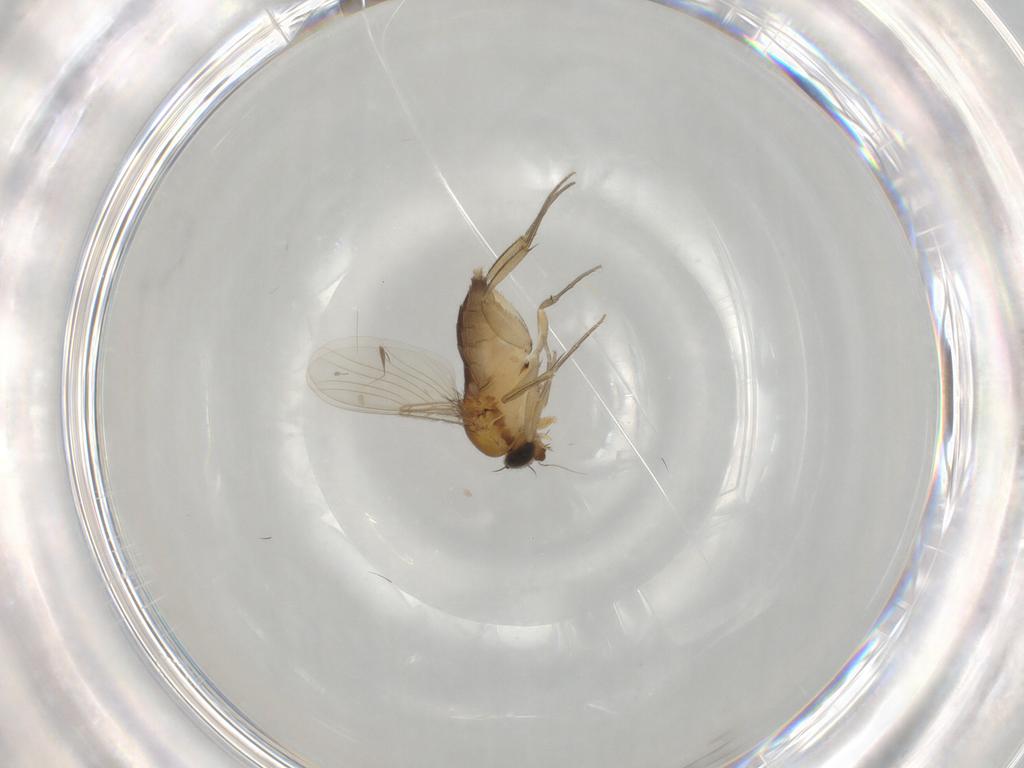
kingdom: Animalia
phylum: Arthropoda
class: Insecta
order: Diptera
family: Phoridae
